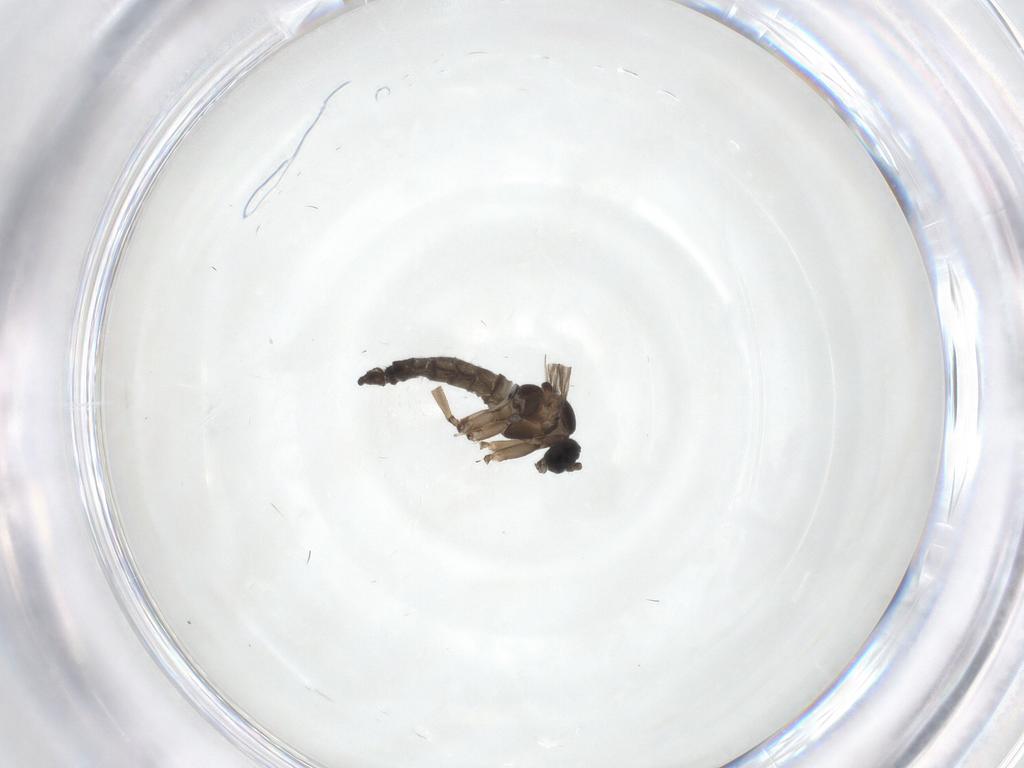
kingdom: Animalia
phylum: Arthropoda
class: Insecta
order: Diptera
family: Sciaridae
